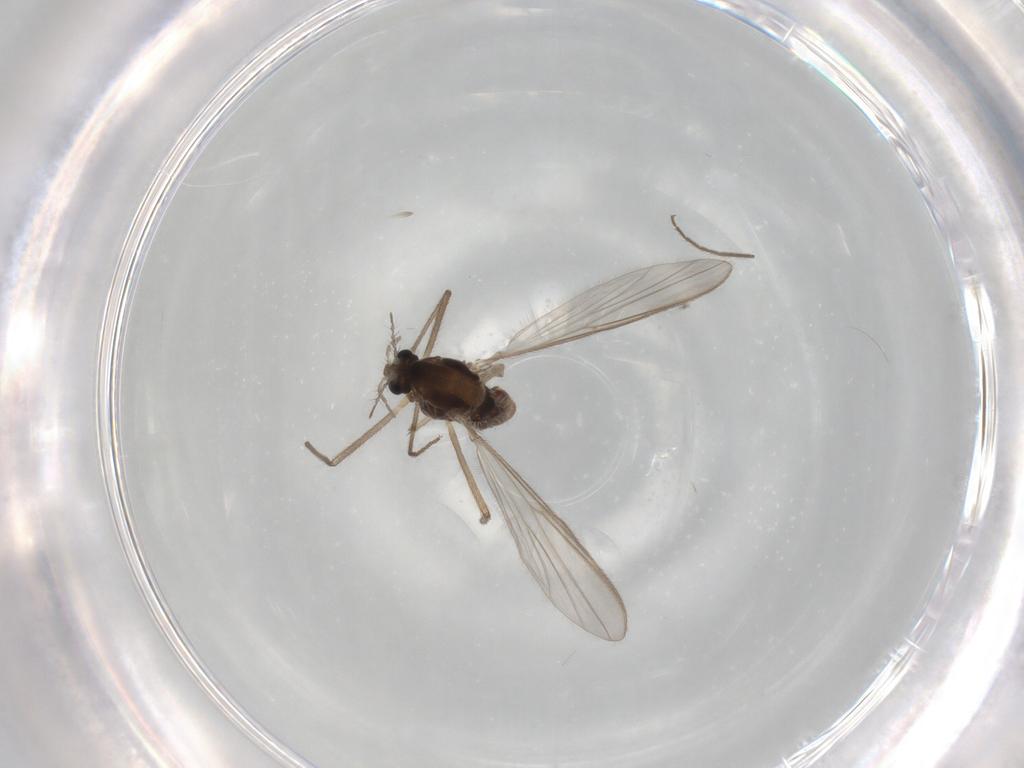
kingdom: Animalia
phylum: Arthropoda
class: Insecta
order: Diptera
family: Chironomidae
